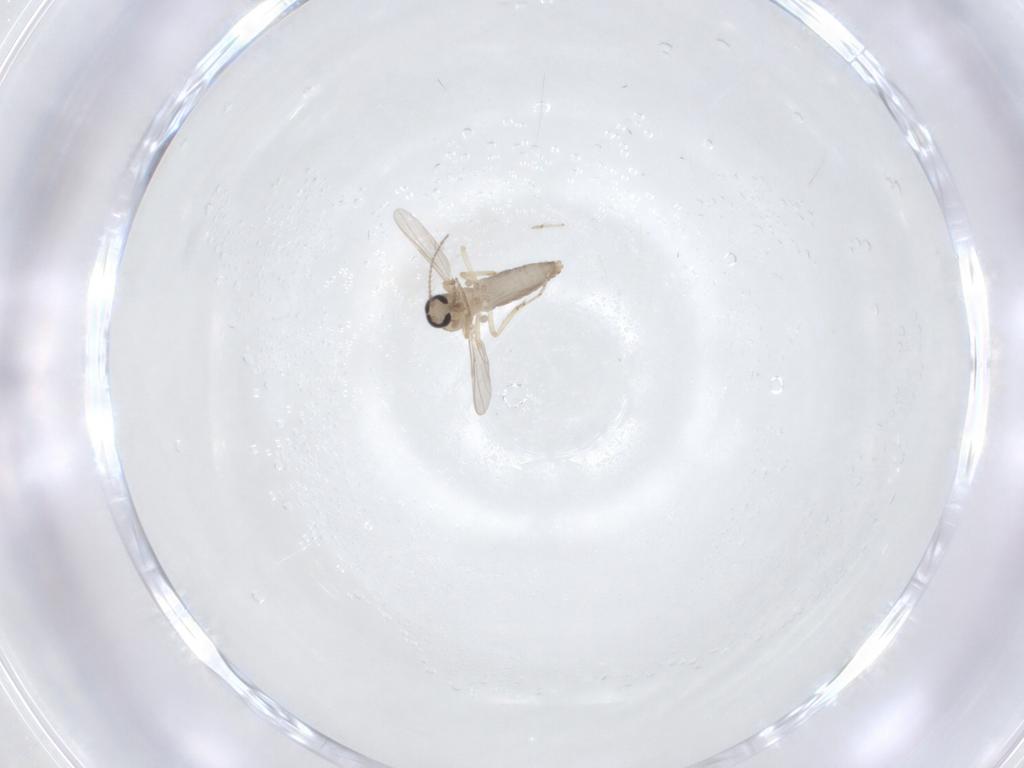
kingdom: Animalia
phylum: Arthropoda
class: Insecta
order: Diptera
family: Ceratopogonidae
